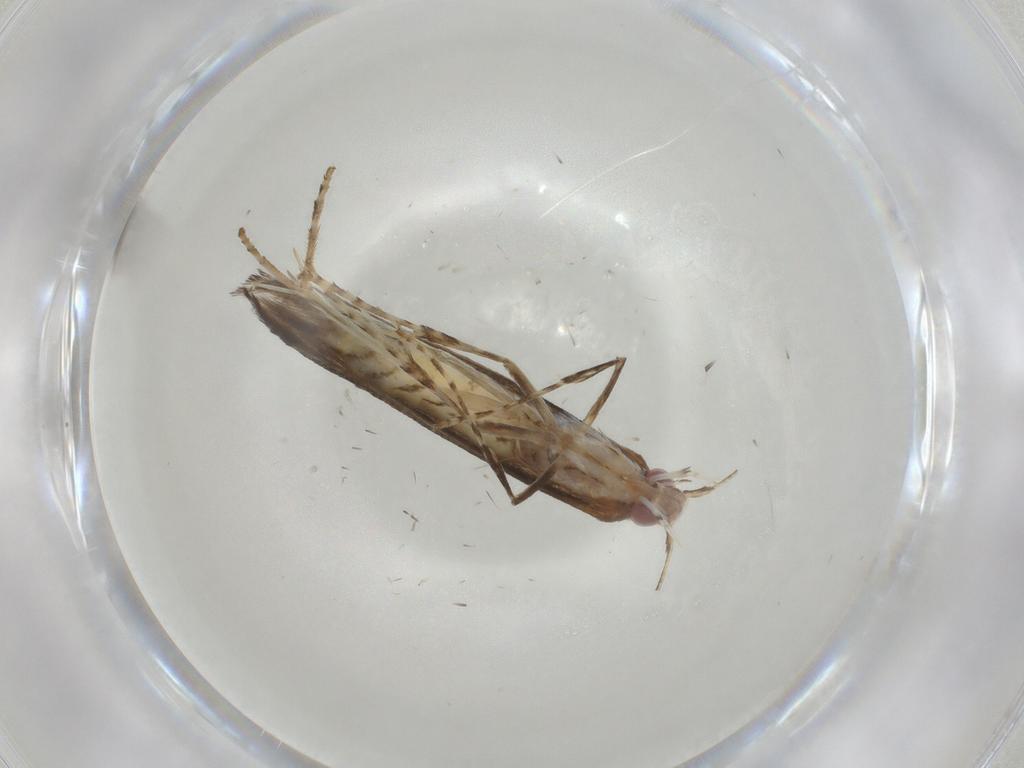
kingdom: Animalia
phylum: Arthropoda
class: Insecta
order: Lepidoptera
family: Gracillariidae
